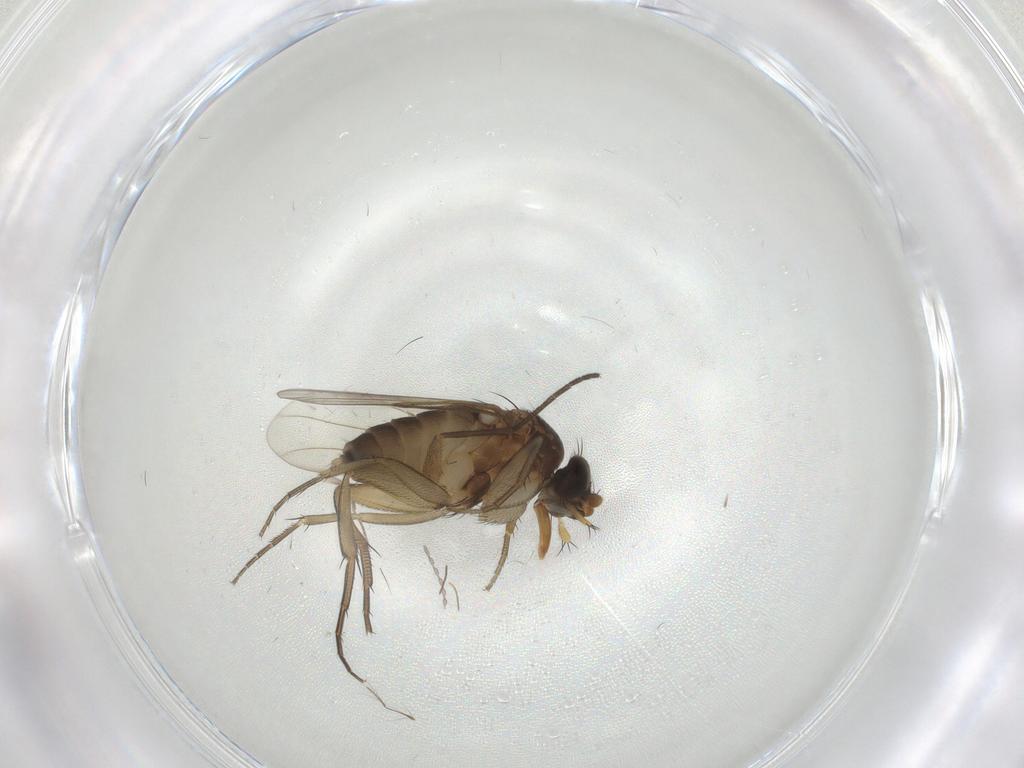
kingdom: Animalia
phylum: Arthropoda
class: Insecta
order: Diptera
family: Phoridae
